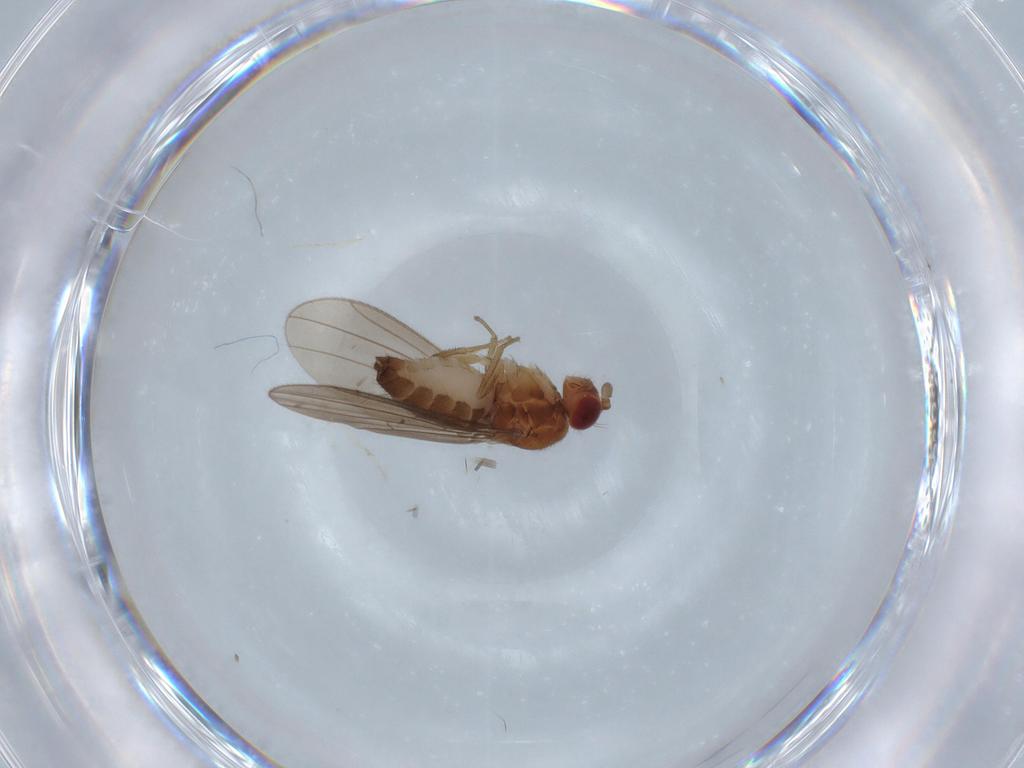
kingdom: Animalia
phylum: Arthropoda
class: Insecta
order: Diptera
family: Drosophilidae
